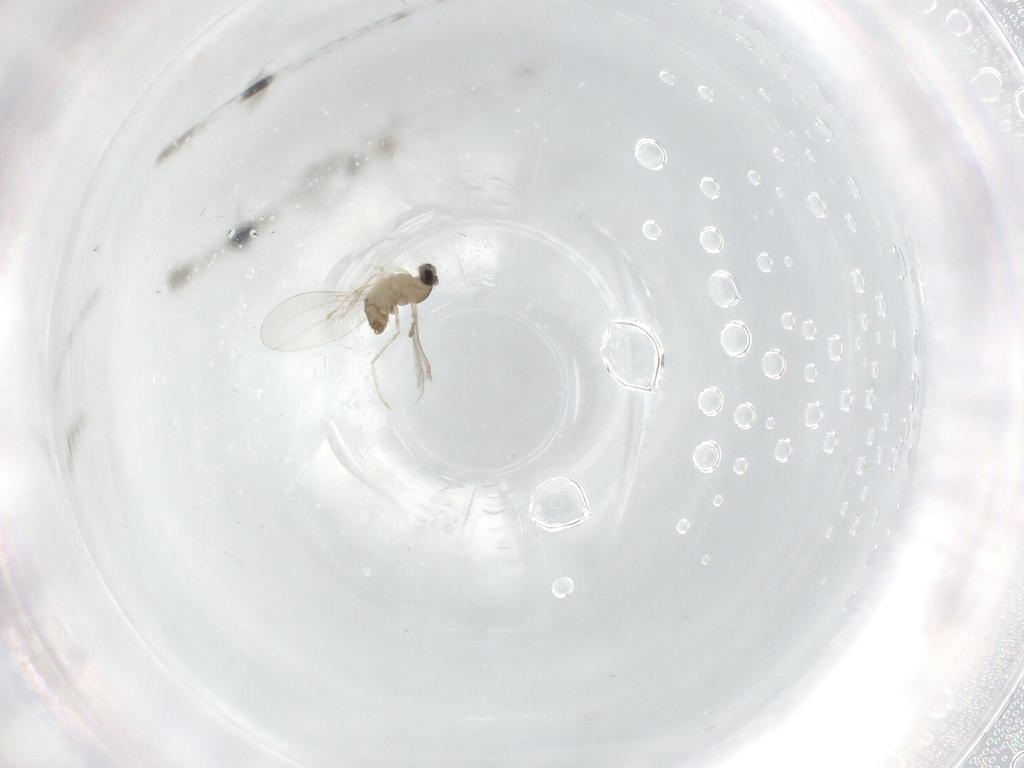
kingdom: Animalia
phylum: Arthropoda
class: Insecta
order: Diptera
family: Cecidomyiidae
